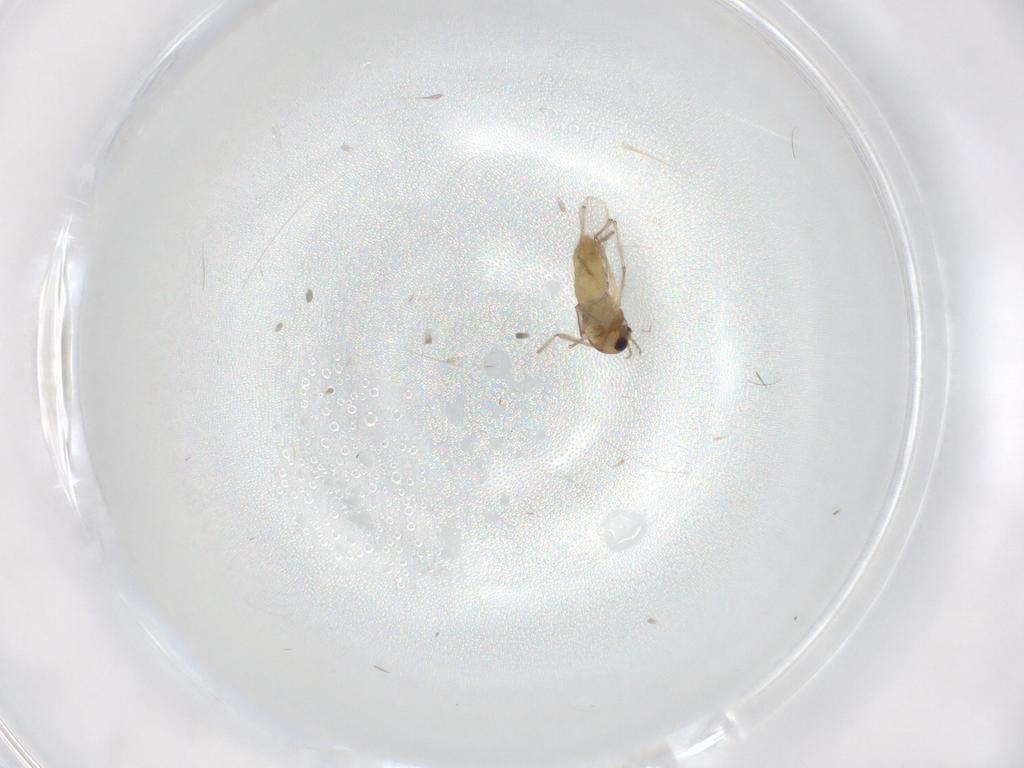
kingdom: Animalia
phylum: Arthropoda
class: Insecta
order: Diptera
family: Chironomidae
